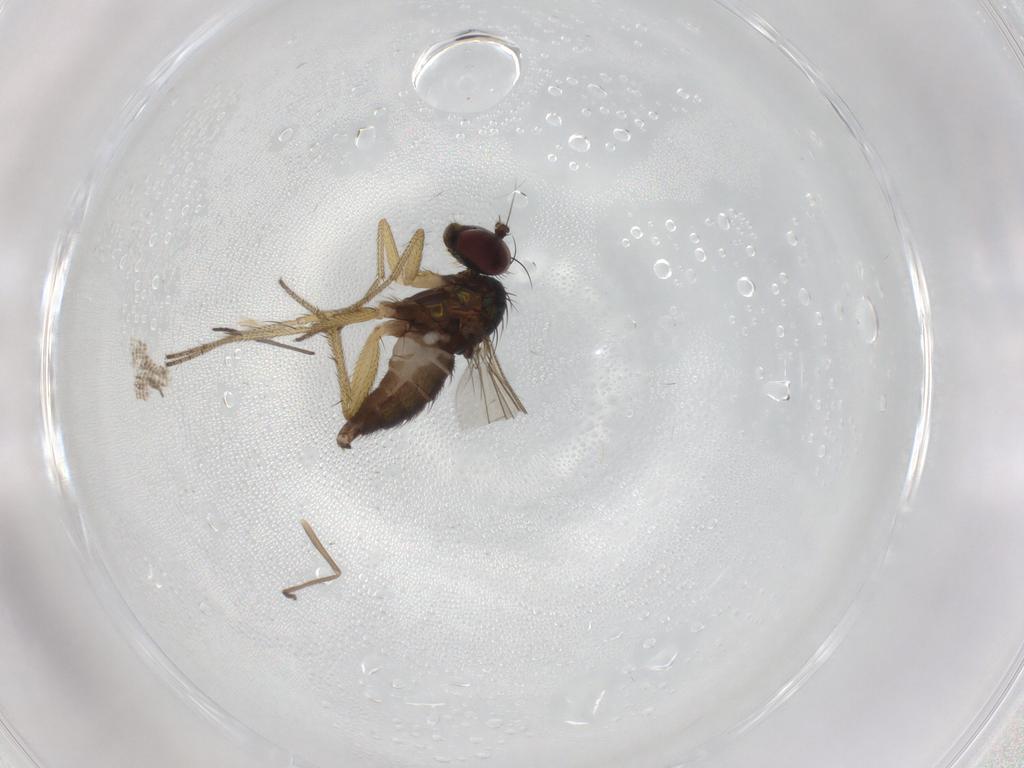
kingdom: Animalia
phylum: Arthropoda
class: Insecta
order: Diptera
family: Dolichopodidae
